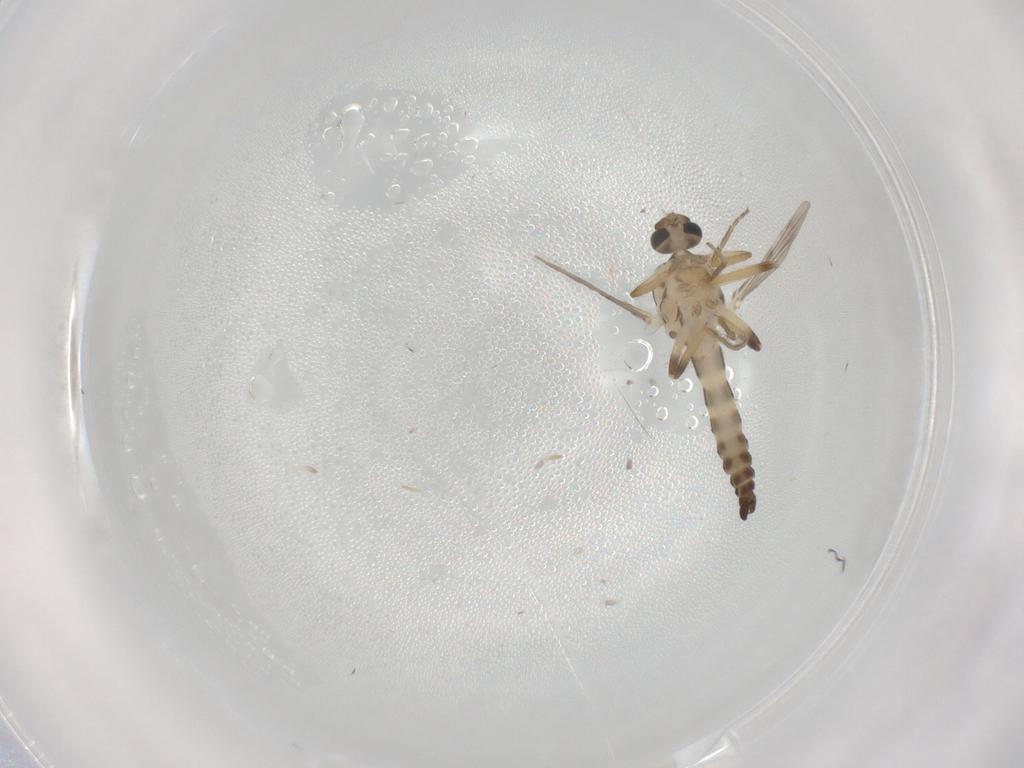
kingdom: Animalia
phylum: Arthropoda
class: Insecta
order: Diptera
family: Ceratopogonidae
